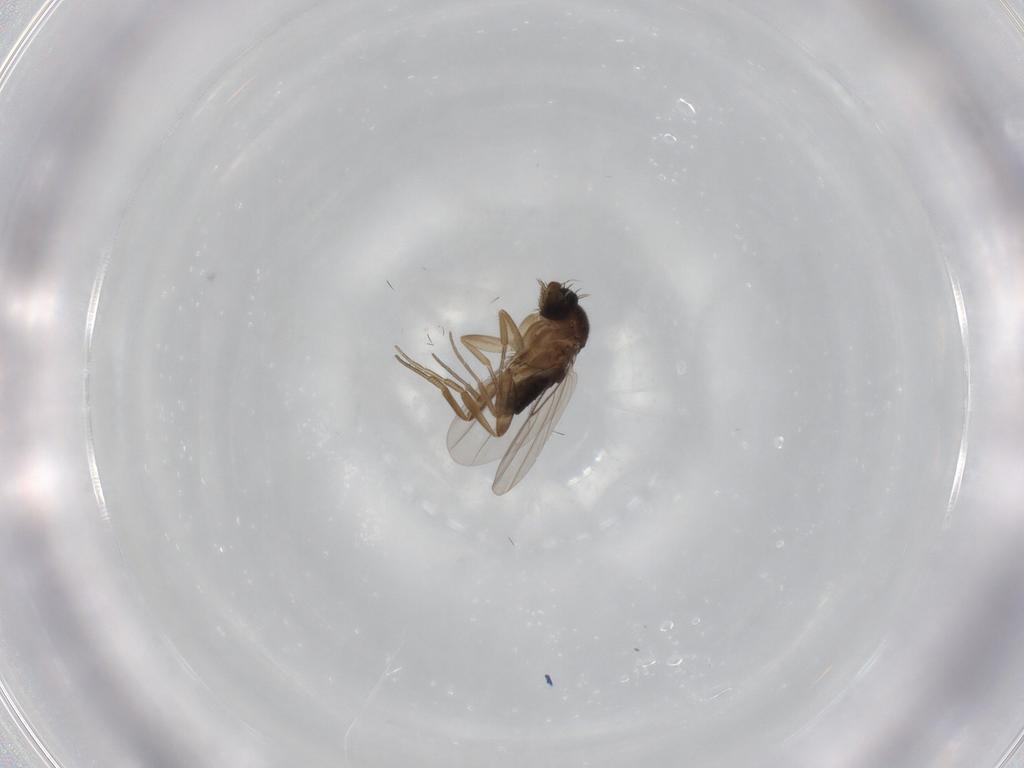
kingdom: Animalia
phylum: Arthropoda
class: Insecta
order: Diptera
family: Phoridae
